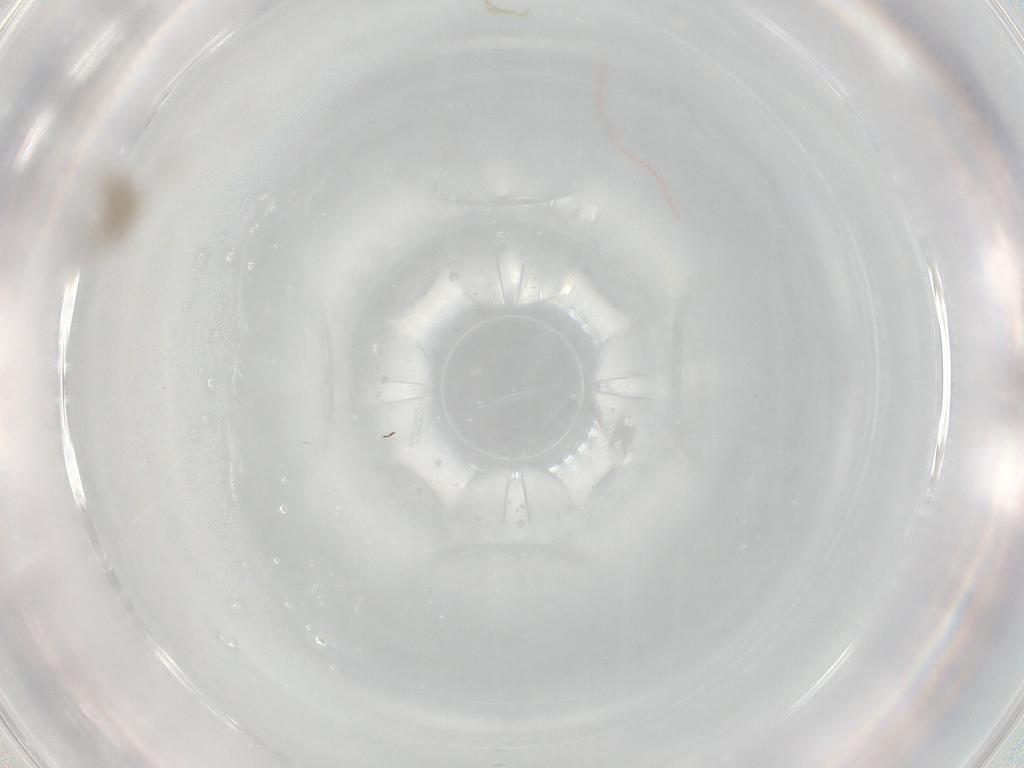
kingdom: Animalia
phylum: Arthropoda
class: Insecta
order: Diptera
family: Cecidomyiidae
